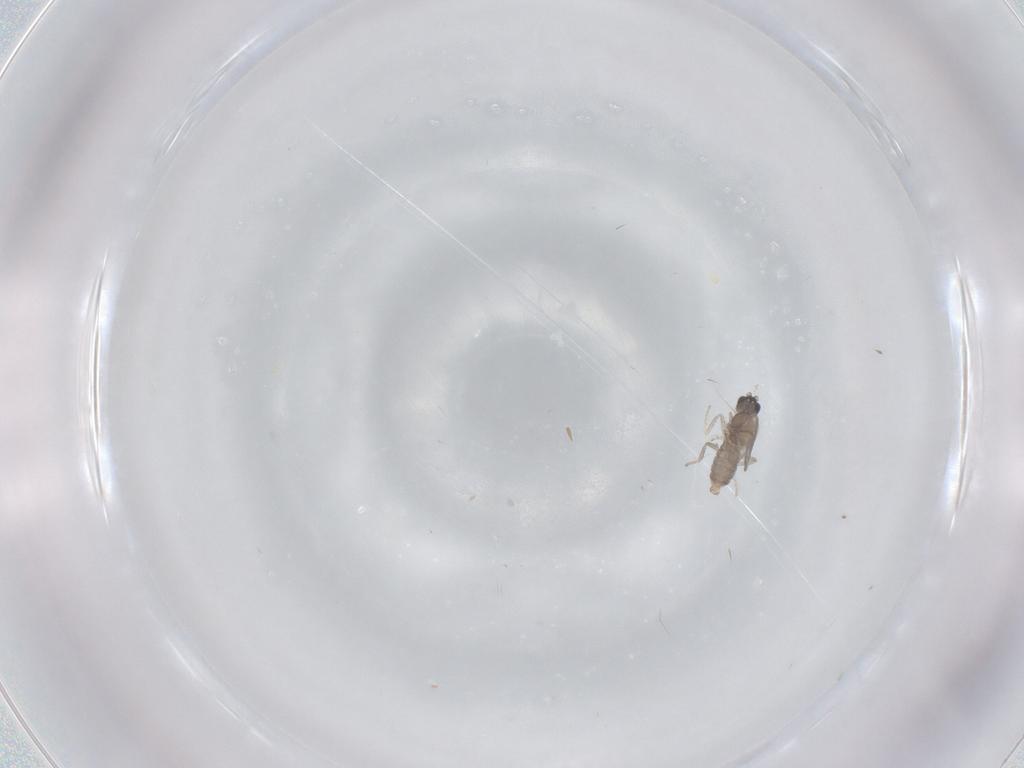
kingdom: Animalia
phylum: Arthropoda
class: Insecta
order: Diptera
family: Cecidomyiidae
